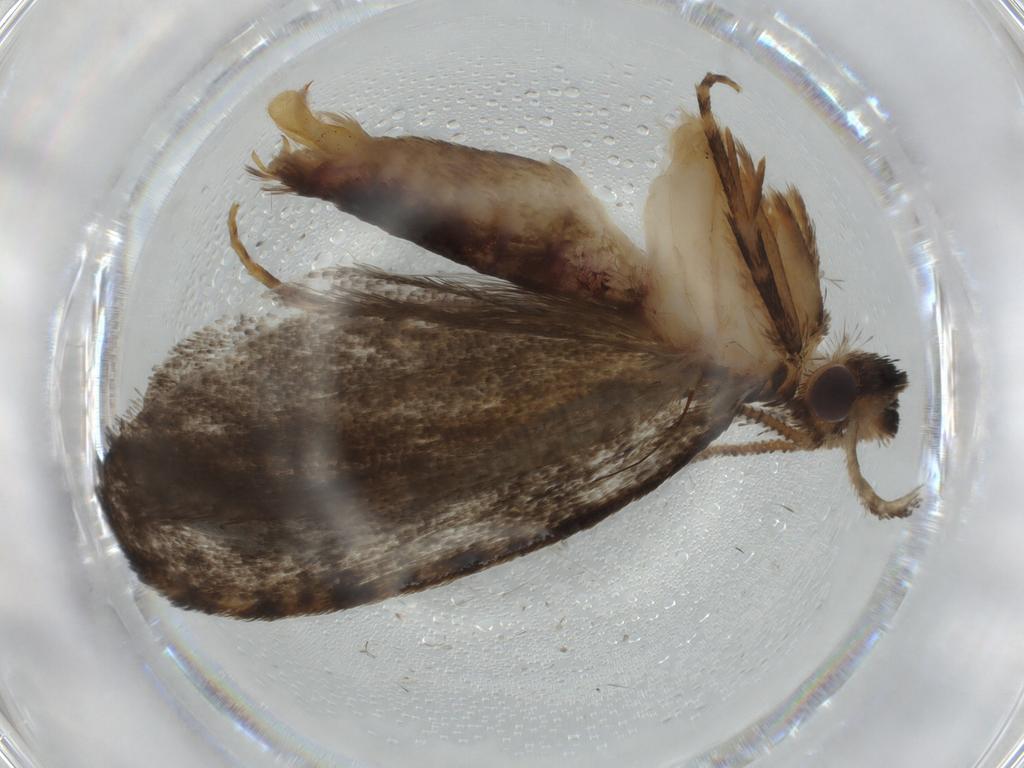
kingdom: Animalia
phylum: Arthropoda
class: Insecta
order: Lepidoptera
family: Tineidae
